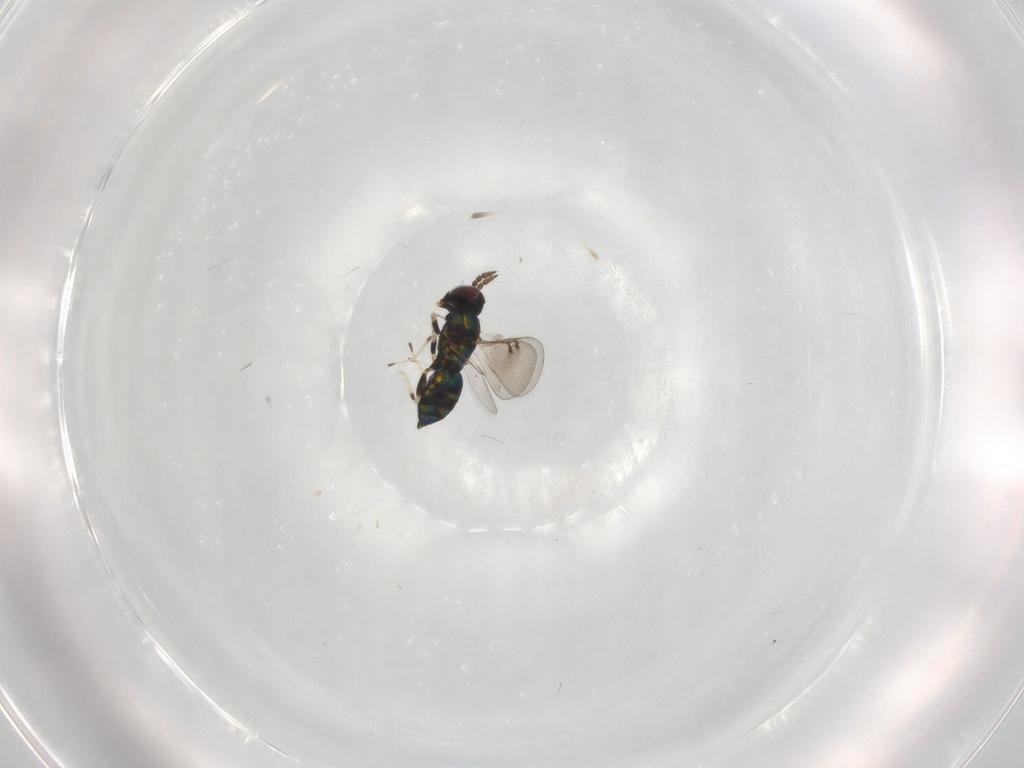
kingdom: Animalia
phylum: Arthropoda
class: Insecta
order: Hymenoptera
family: Eulophidae
